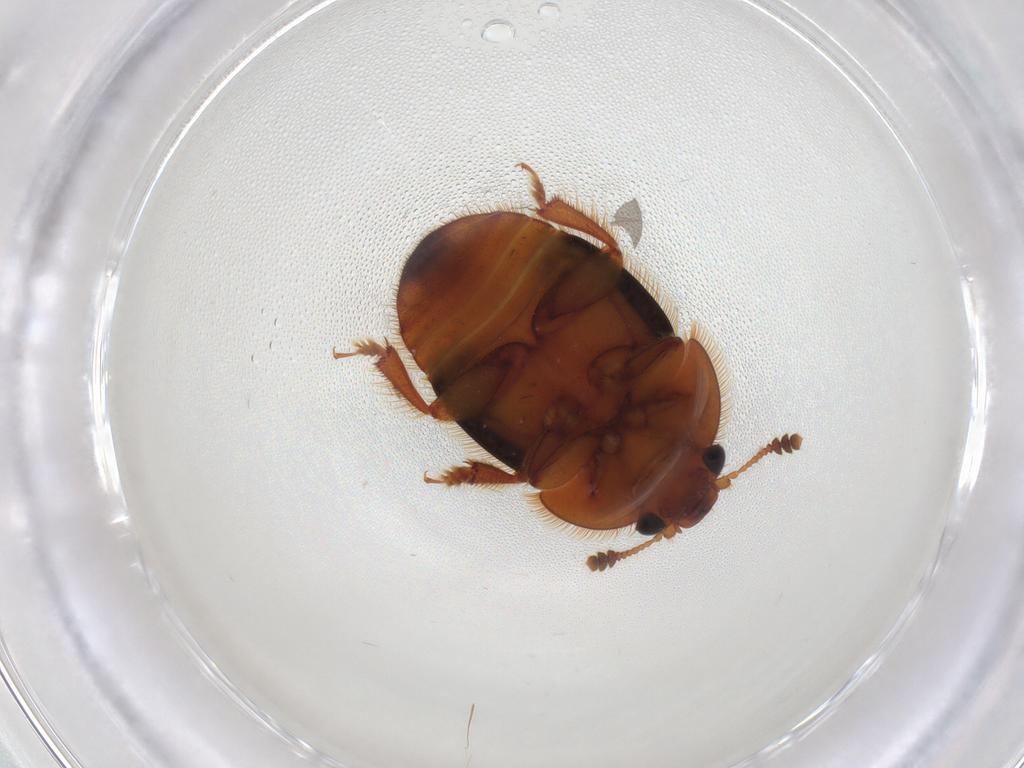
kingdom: Animalia
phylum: Arthropoda
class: Insecta
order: Coleoptera
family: Nitidulidae
